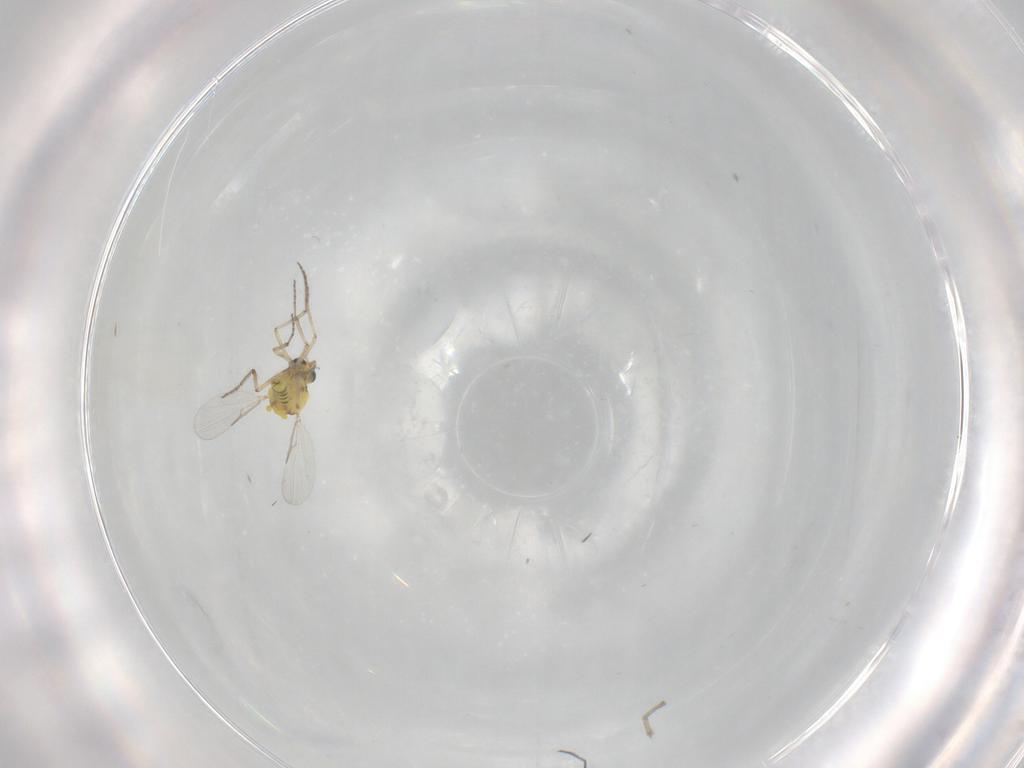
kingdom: Animalia
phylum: Arthropoda
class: Insecta
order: Diptera
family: Ceratopogonidae
